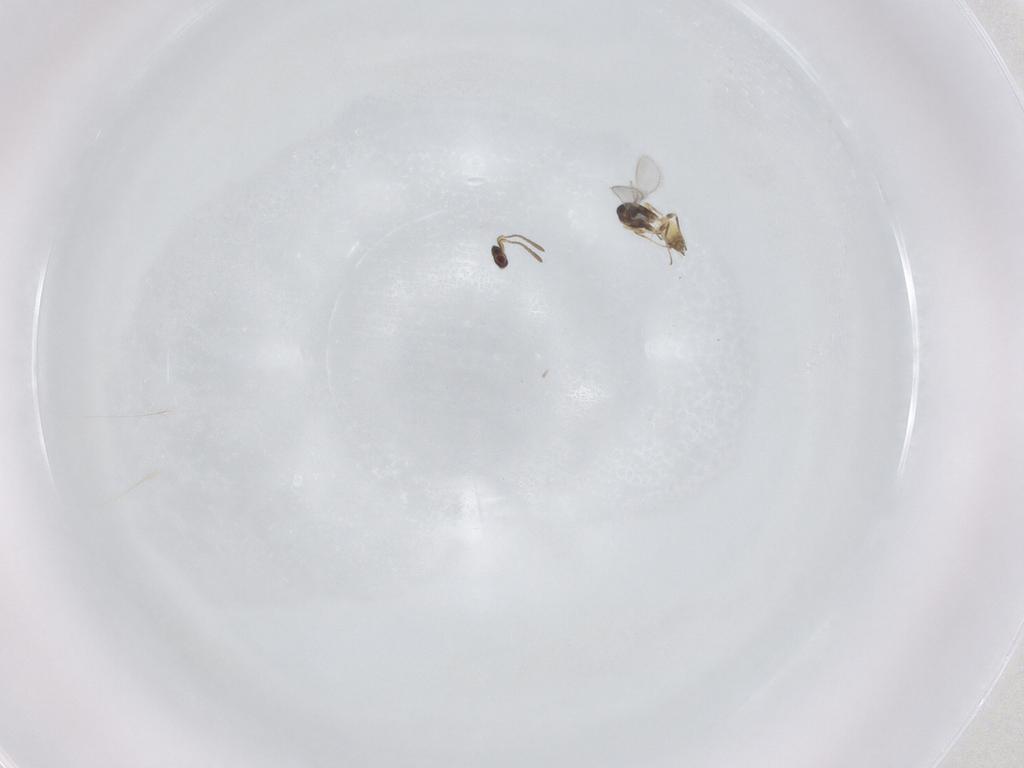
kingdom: Animalia
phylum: Arthropoda
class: Insecta
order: Hymenoptera
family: Mymaridae
